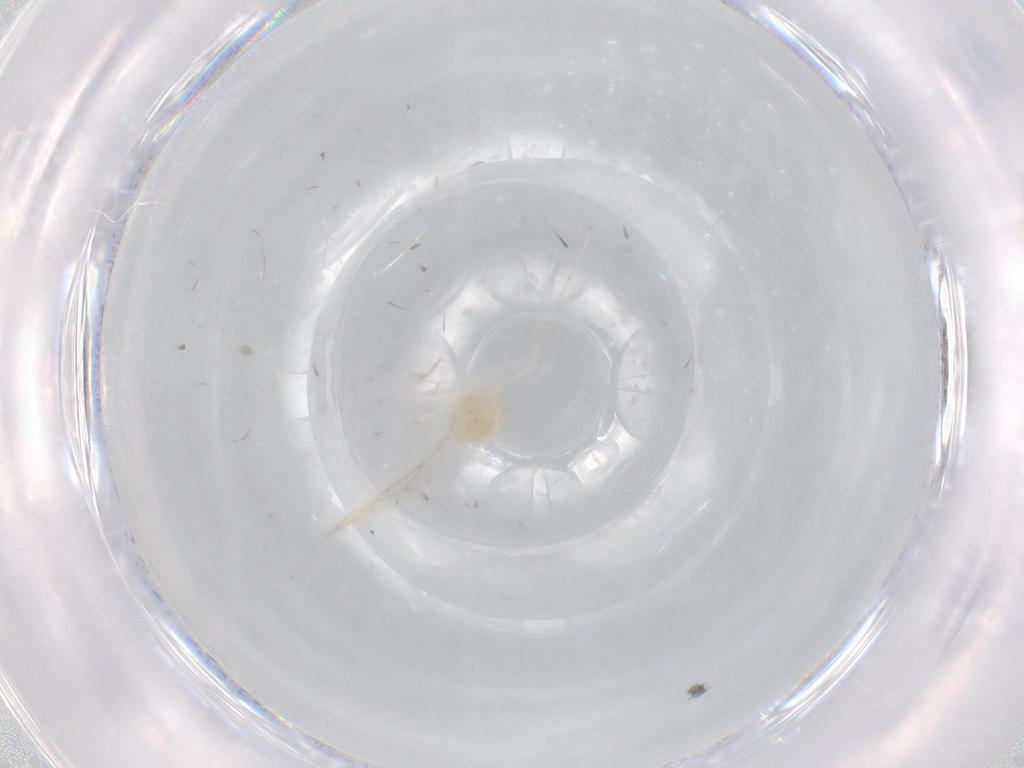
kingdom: Animalia
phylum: Arthropoda
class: Insecta
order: Diptera
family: Cecidomyiidae
